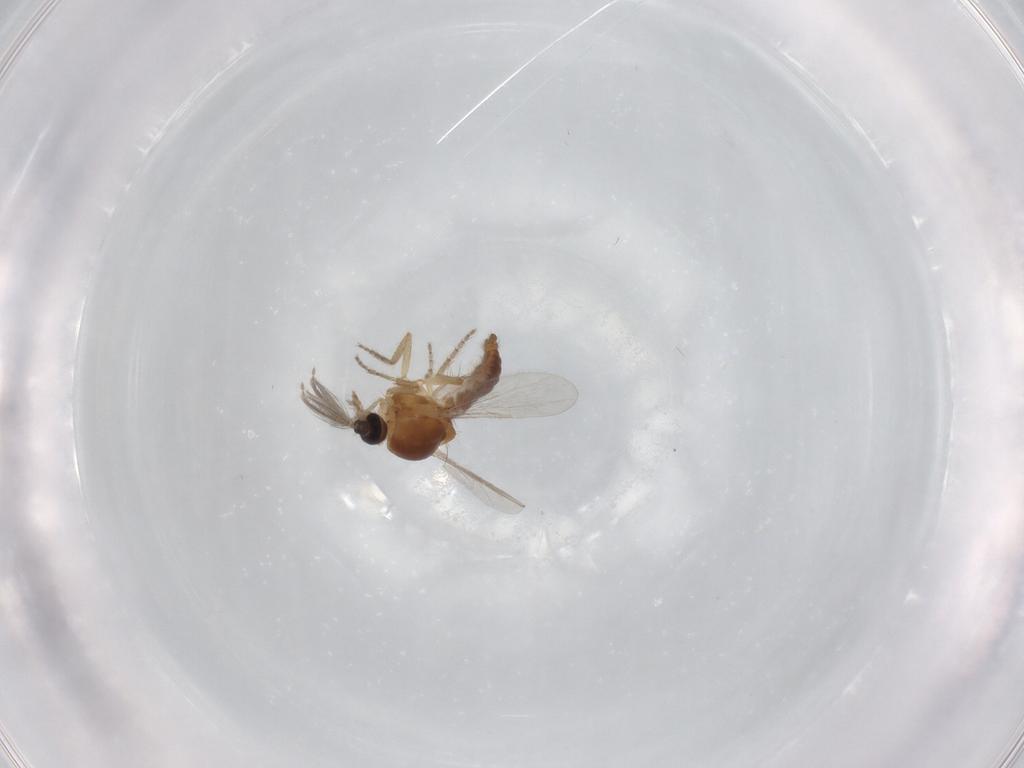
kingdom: Animalia
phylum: Arthropoda
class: Insecta
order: Diptera
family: Ceratopogonidae
